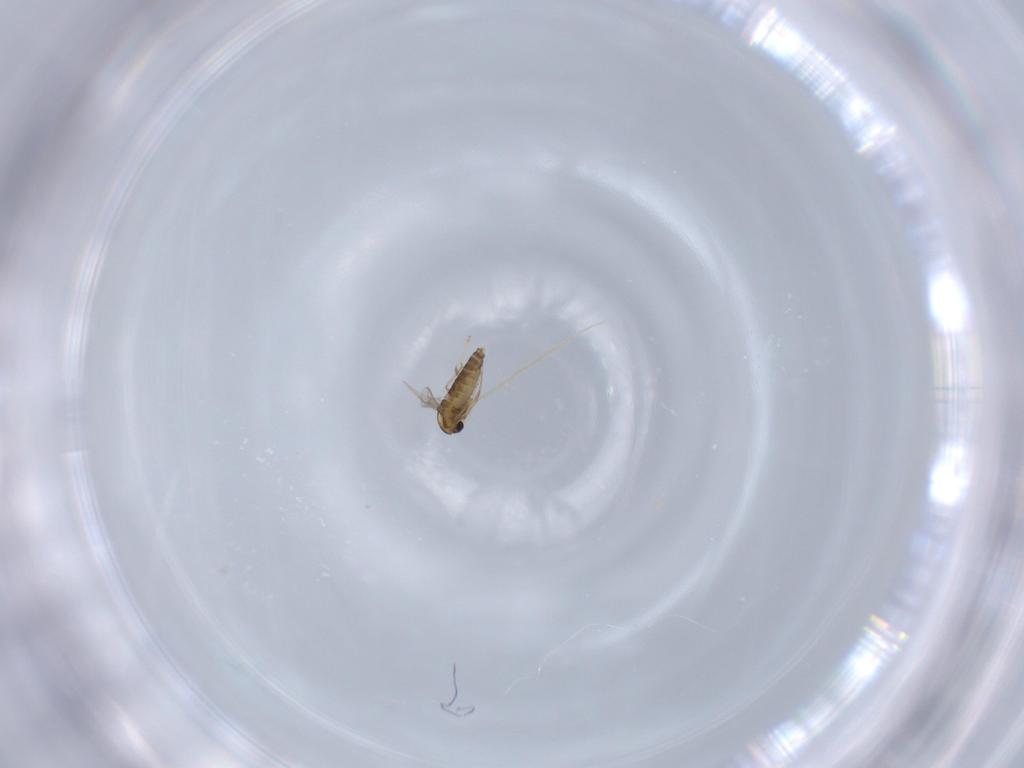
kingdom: Animalia
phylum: Arthropoda
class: Insecta
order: Diptera
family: Chironomidae
